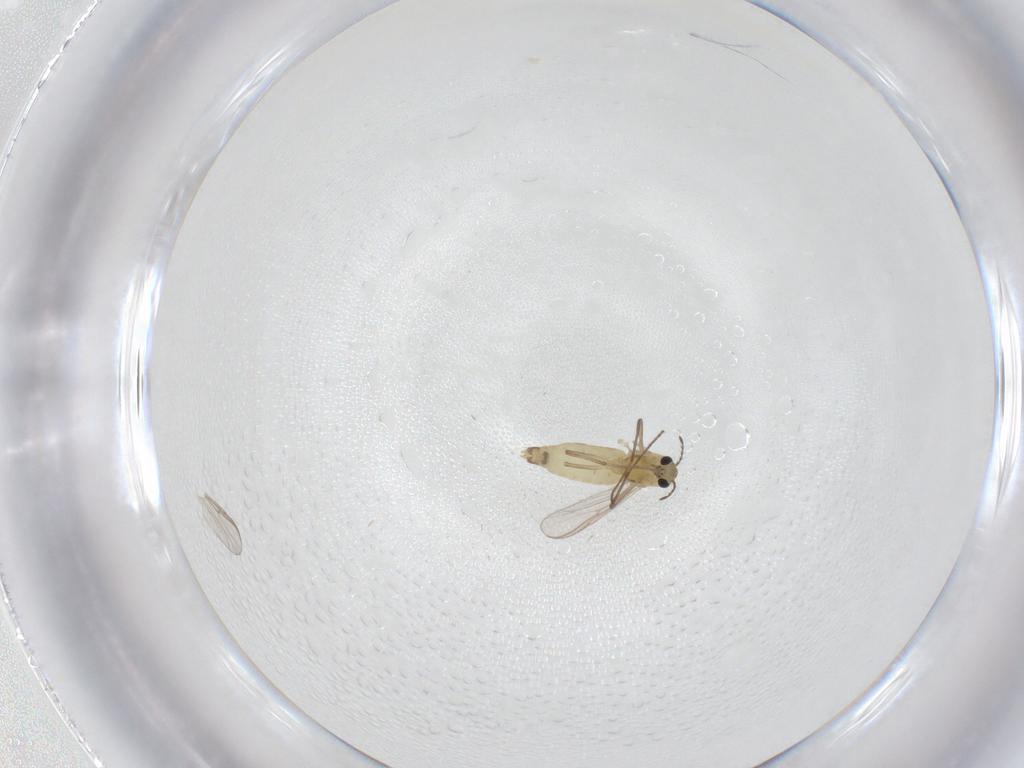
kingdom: Animalia
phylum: Arthropoda
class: Insecta
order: Diptera
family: Chironomidae
